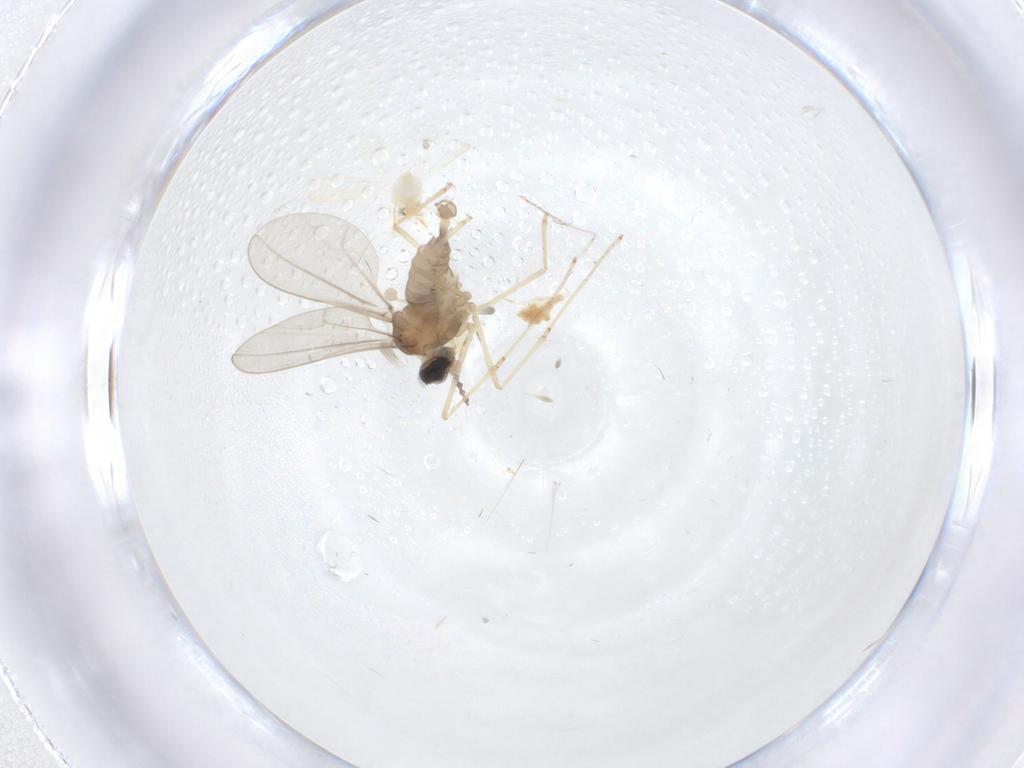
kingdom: Animalia
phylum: Arthropoda
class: Insecta
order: Diptera
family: Cecidomyiidae
